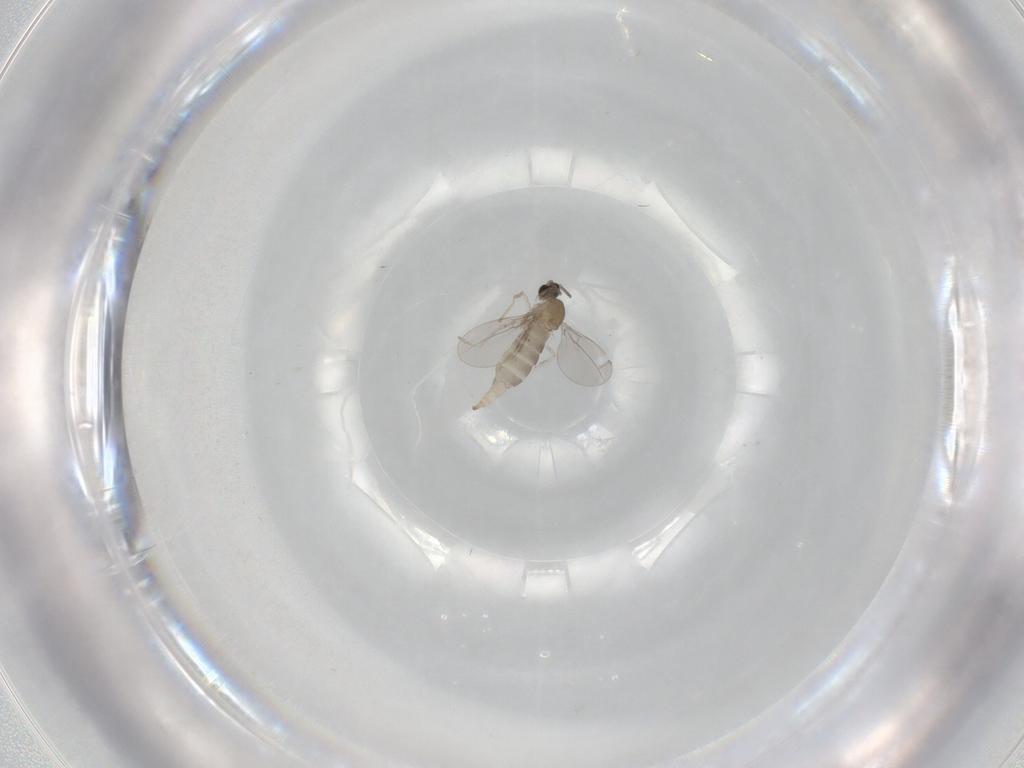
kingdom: Animalia
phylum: Arthropoda
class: Insecta
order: Diptera
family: Cecidomyiidae
